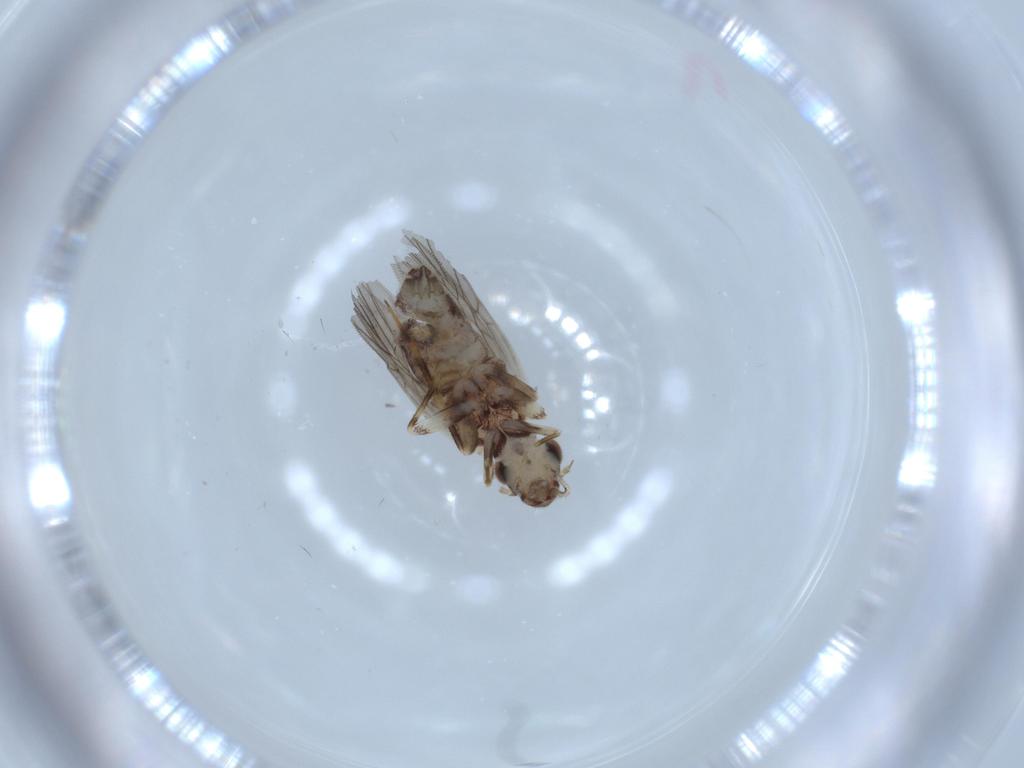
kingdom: Animalia
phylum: Arthropoda
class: Insecta
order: Psocodea
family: Lepidopsocidae
